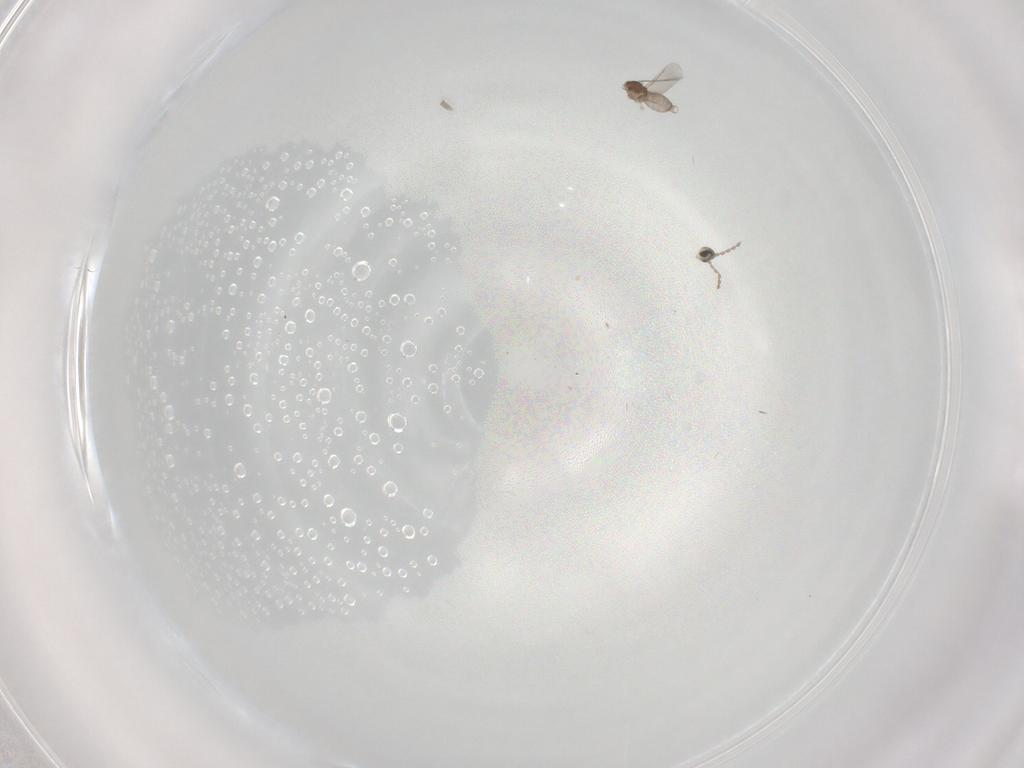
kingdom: Animalia
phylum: Arthropoda
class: Insecta
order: Diptera
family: Cecidomyiidae
